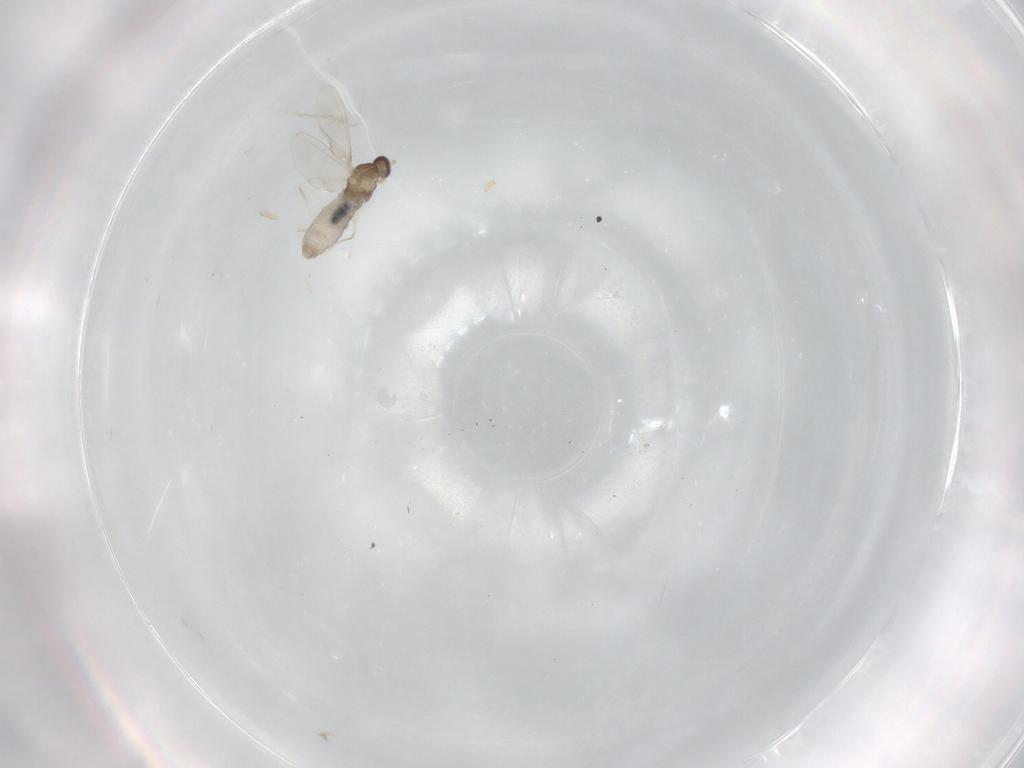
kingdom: Animalia
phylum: Arthropoda
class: Insecta
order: Diptera
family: Cecidomyiidae
